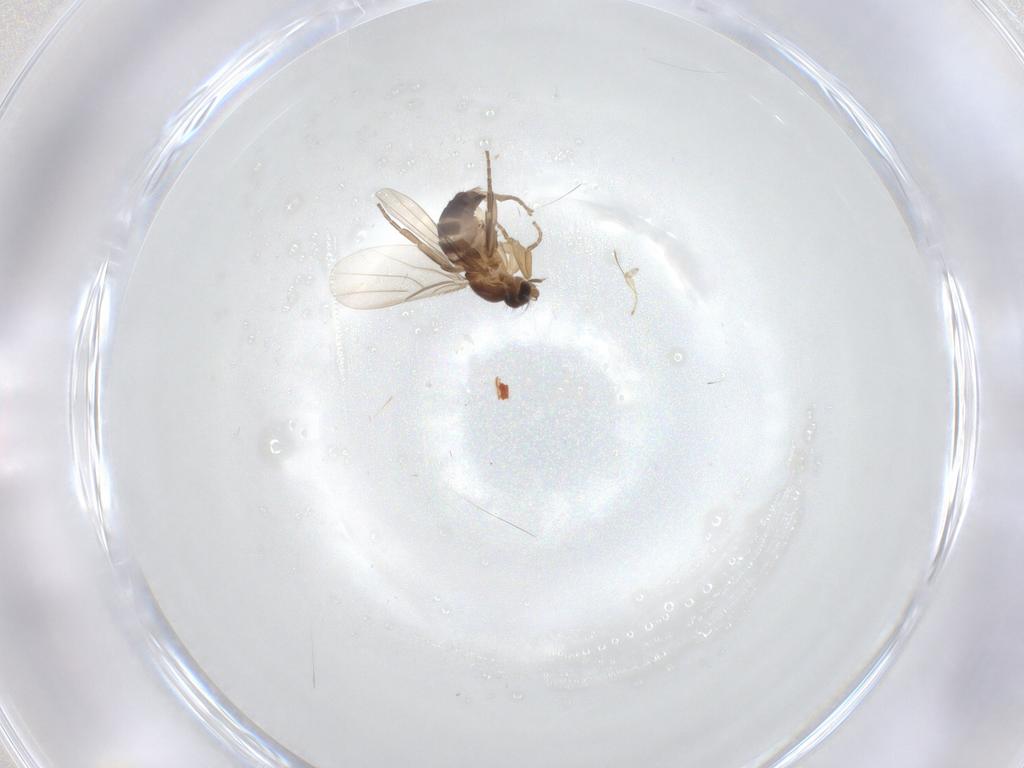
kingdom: Animalia
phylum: Arthropoda
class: Insecta
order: Diptera
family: Phoridae
